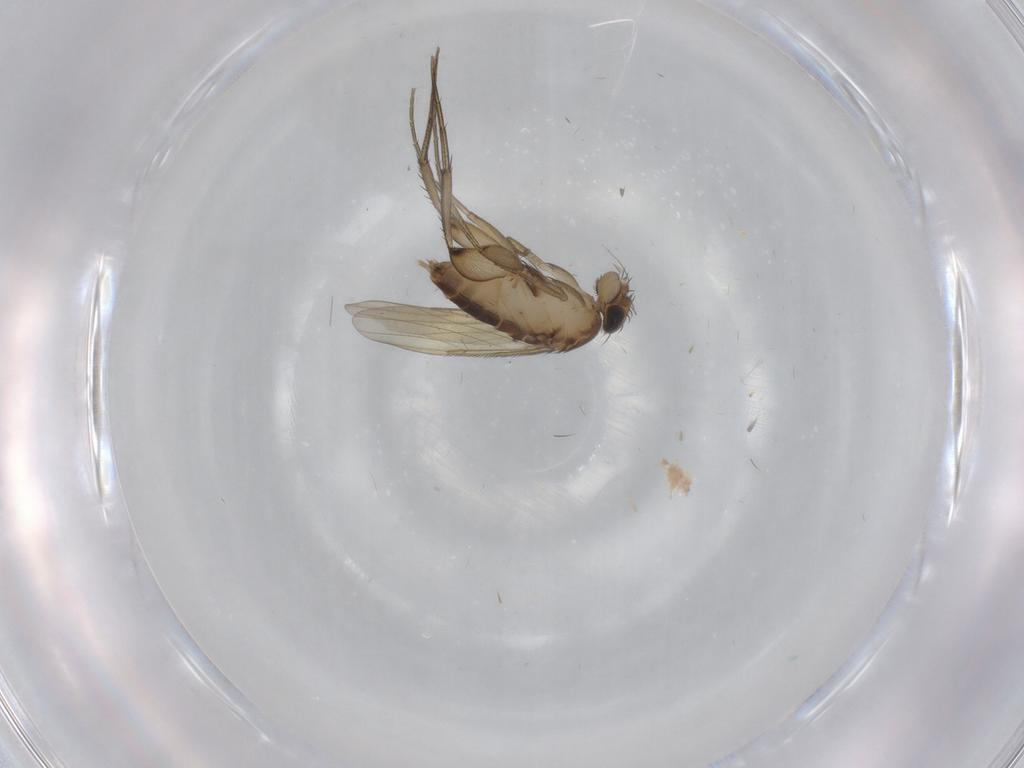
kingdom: Animalia
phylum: Arthropoda
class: Insecta
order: Diptera
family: Phoridae
